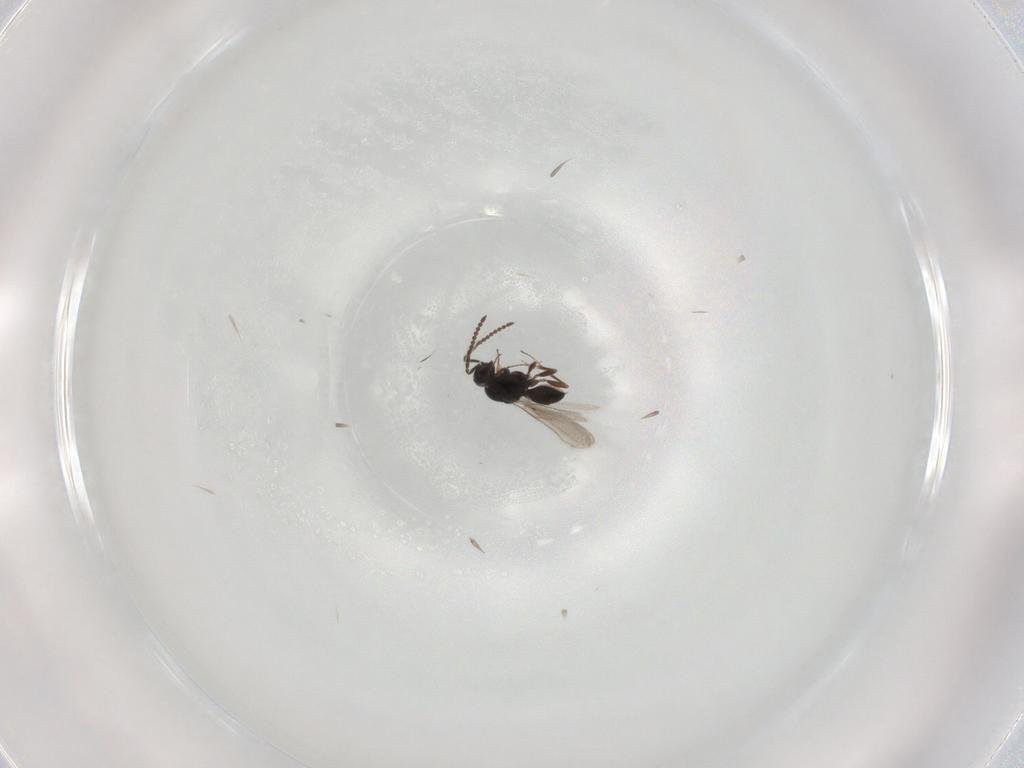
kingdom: Animalia
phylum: Arthropoda
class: Insecta
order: Hymenoptera
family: Scelionidae
